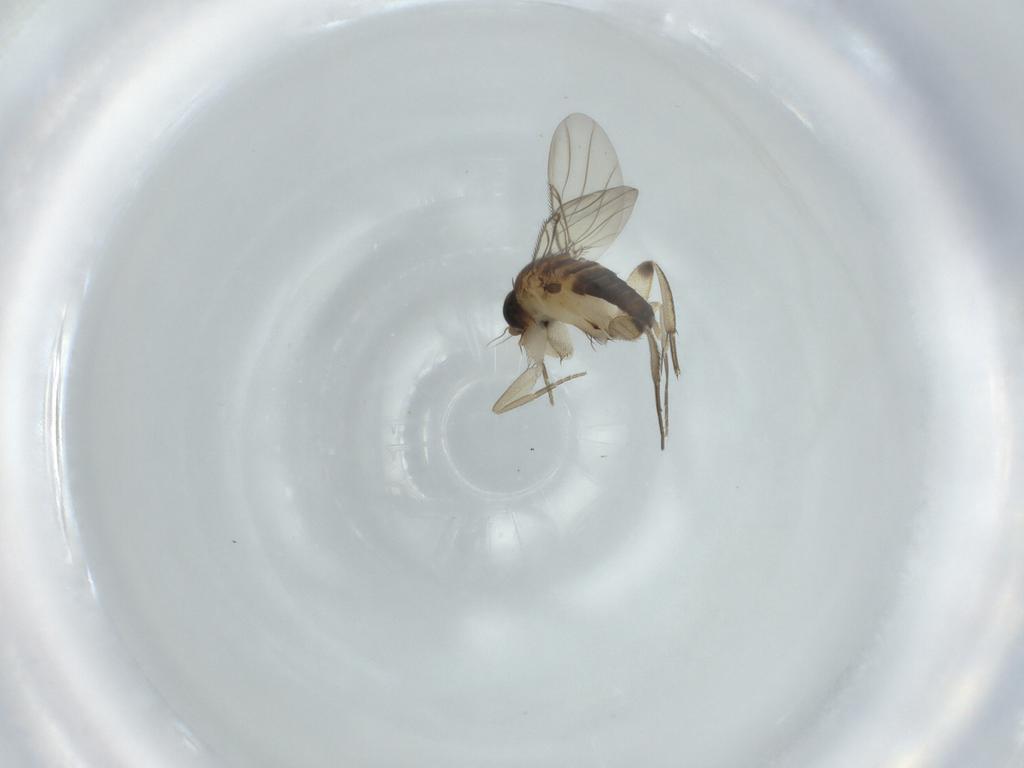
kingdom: Animalia
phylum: Arthropoda
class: Insecta
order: Diptera
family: Phoridae
